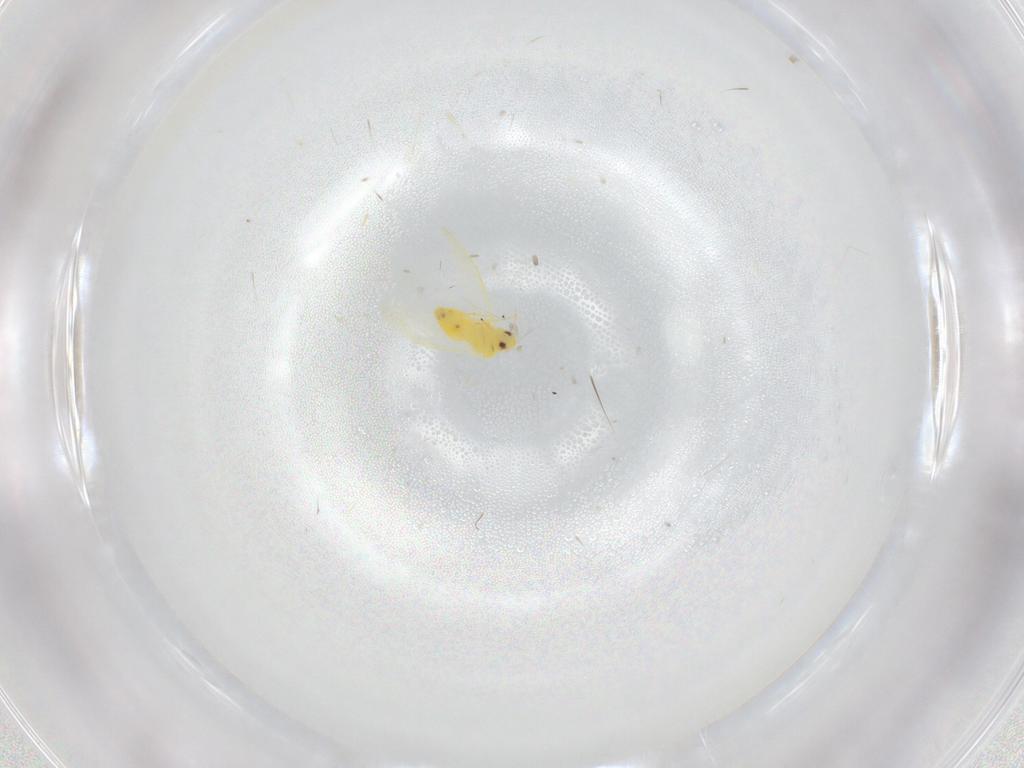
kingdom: Animalia
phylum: Arthropoda
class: Insecta
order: Hemiptera
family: Aleyrodidae
